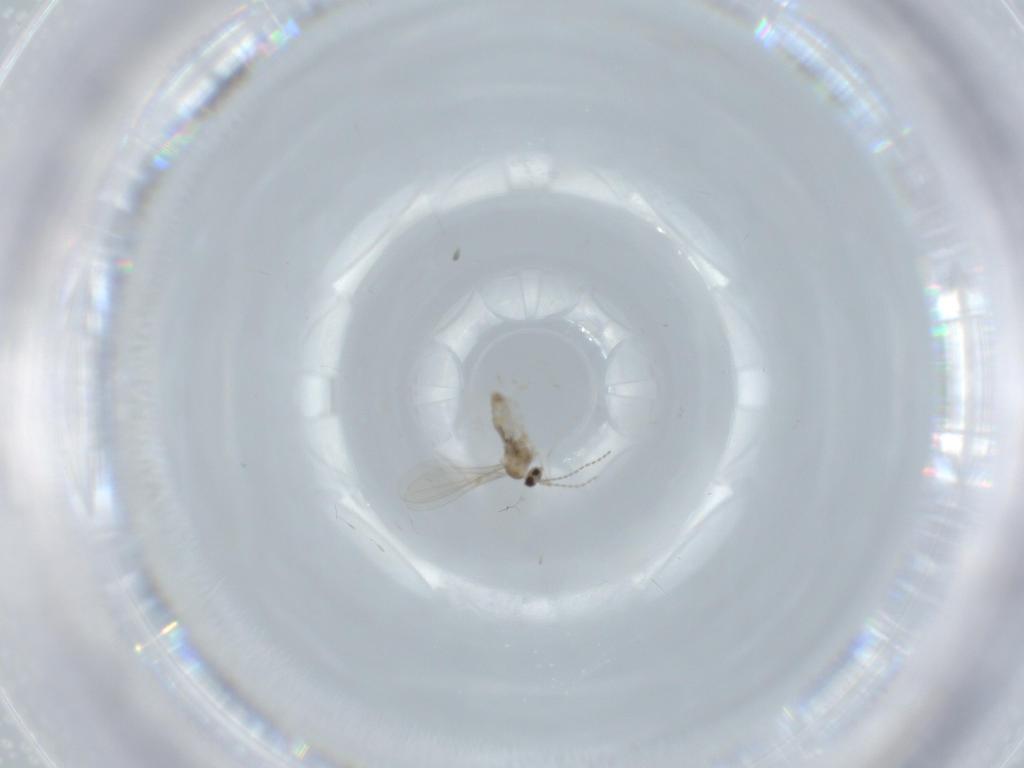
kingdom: Animalia
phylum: Arthropoda
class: Insecta
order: Diptera
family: Cecidomyiidae
